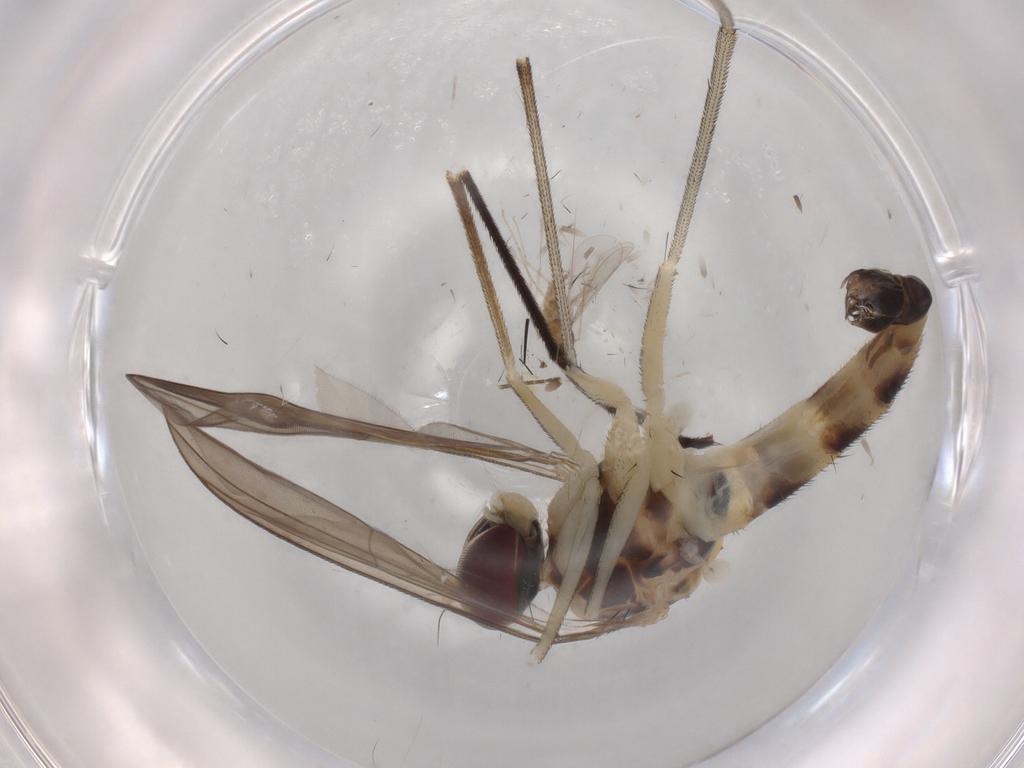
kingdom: Animalia
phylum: Arthropoda
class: Insecta
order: Diptera
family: Cecidomyiidae
